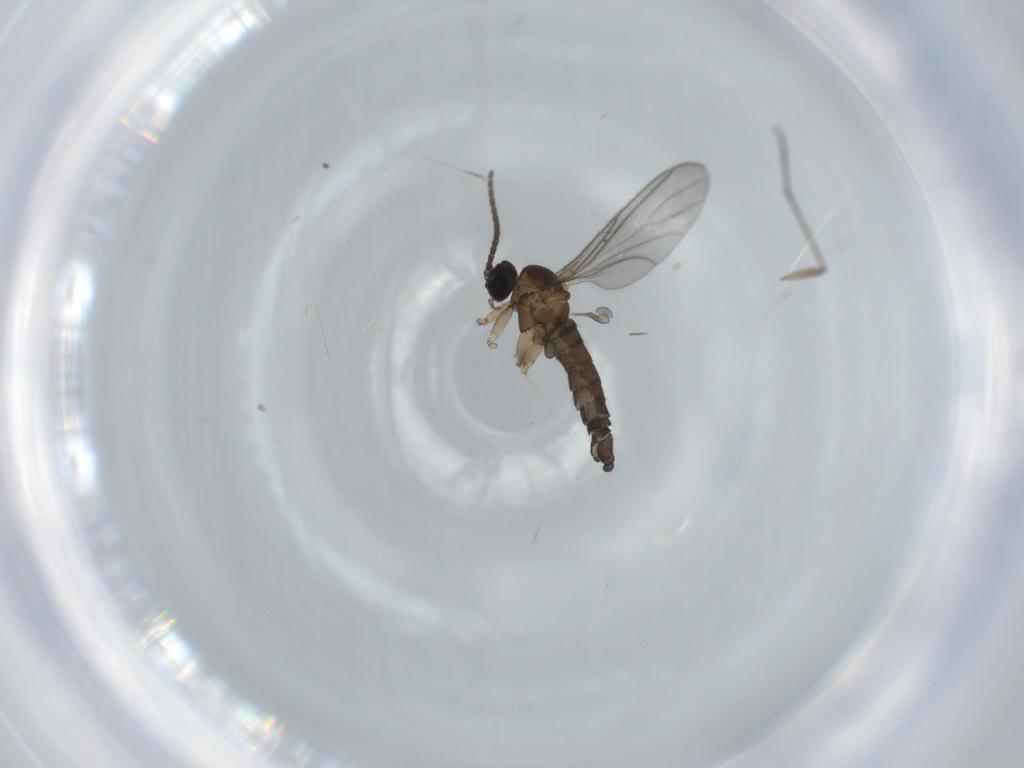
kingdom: Animalia
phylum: Arthropoda
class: Insecta
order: Diptera
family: Sciaridae
